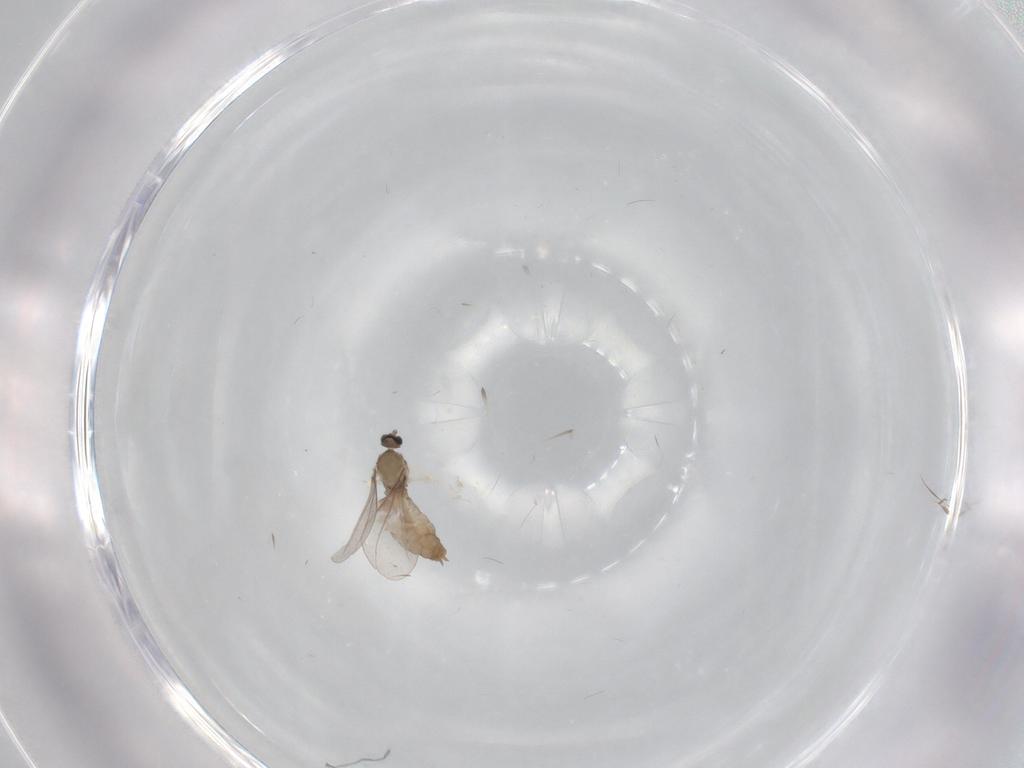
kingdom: Animalia
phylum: Arthropoda
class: Insecta
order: Diptera
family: Psychodidae
